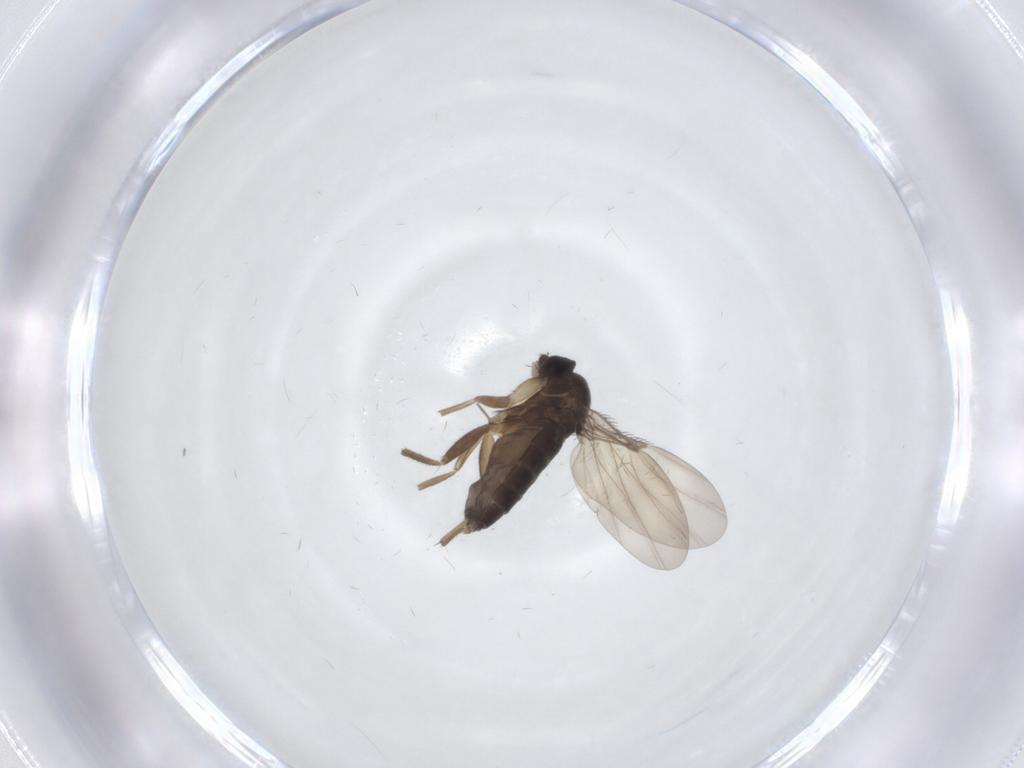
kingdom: Animalia
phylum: Arthropoda
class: Insecta
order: Diptera
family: Phoridae
